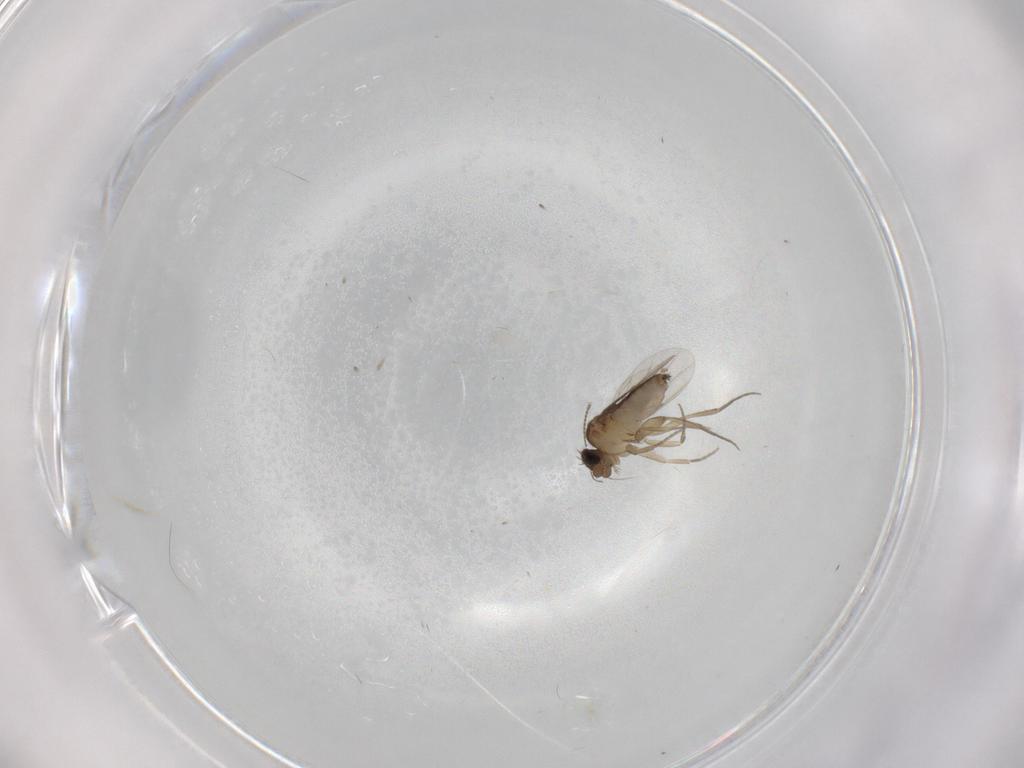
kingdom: Animalia
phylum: Arthropoda
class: Insecta
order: Diptera
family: Phoridae
